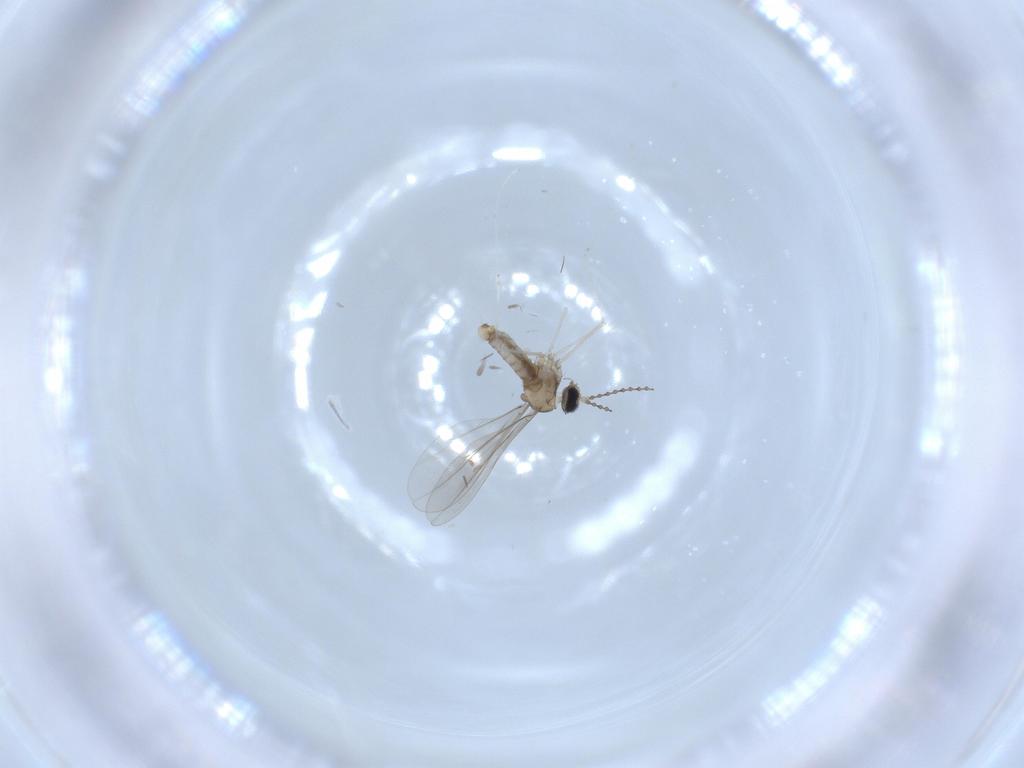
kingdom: Animalia
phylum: Arthropoda
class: Insecta
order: Diptera
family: Cecidomyiidae
